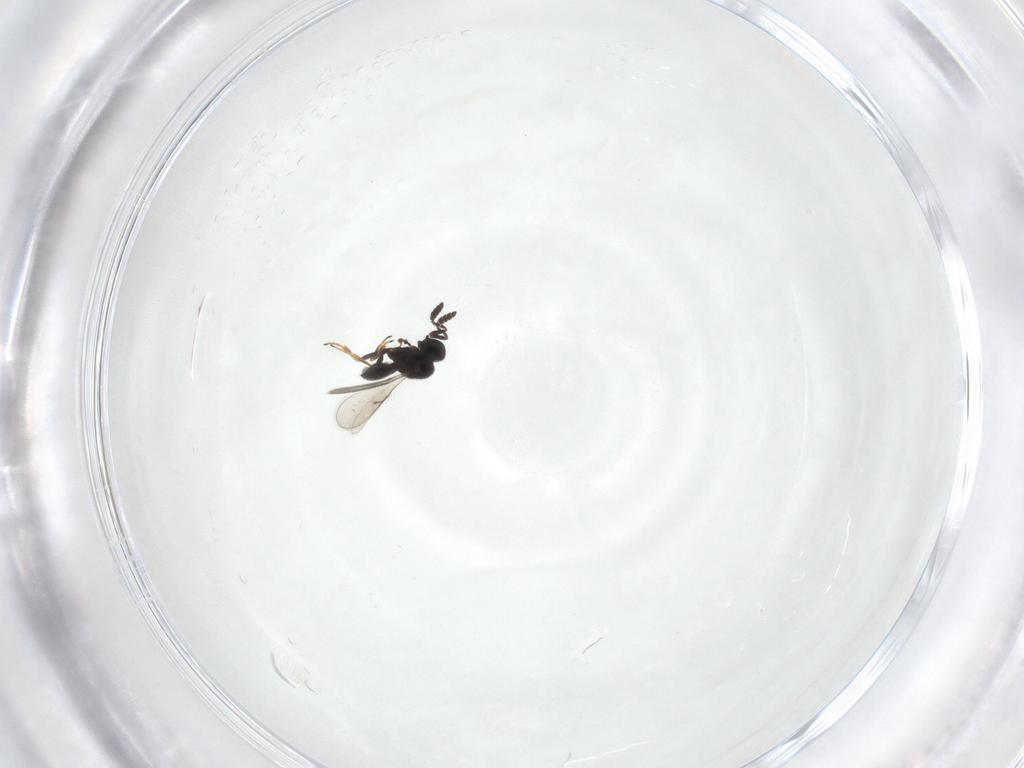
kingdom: Animalia
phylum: Arthropoda
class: Insecta
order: Hymenoptera
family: Scelionidae
